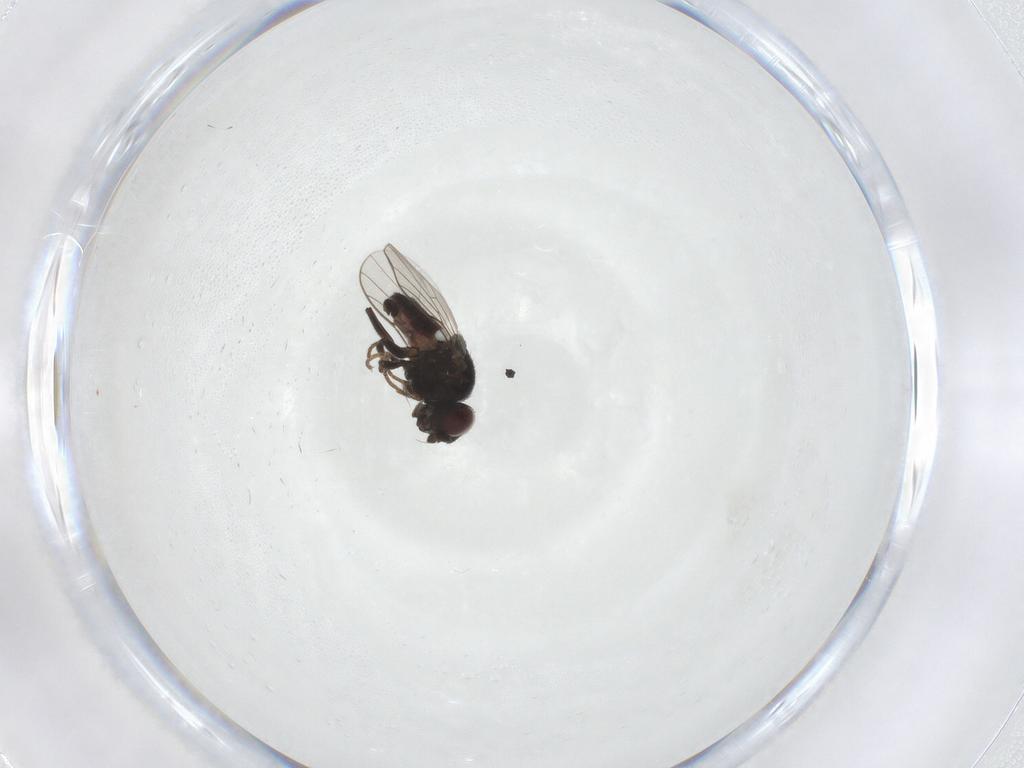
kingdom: Animalia
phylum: Arthropoda
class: Insecta
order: Diptera
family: Chloropidae
